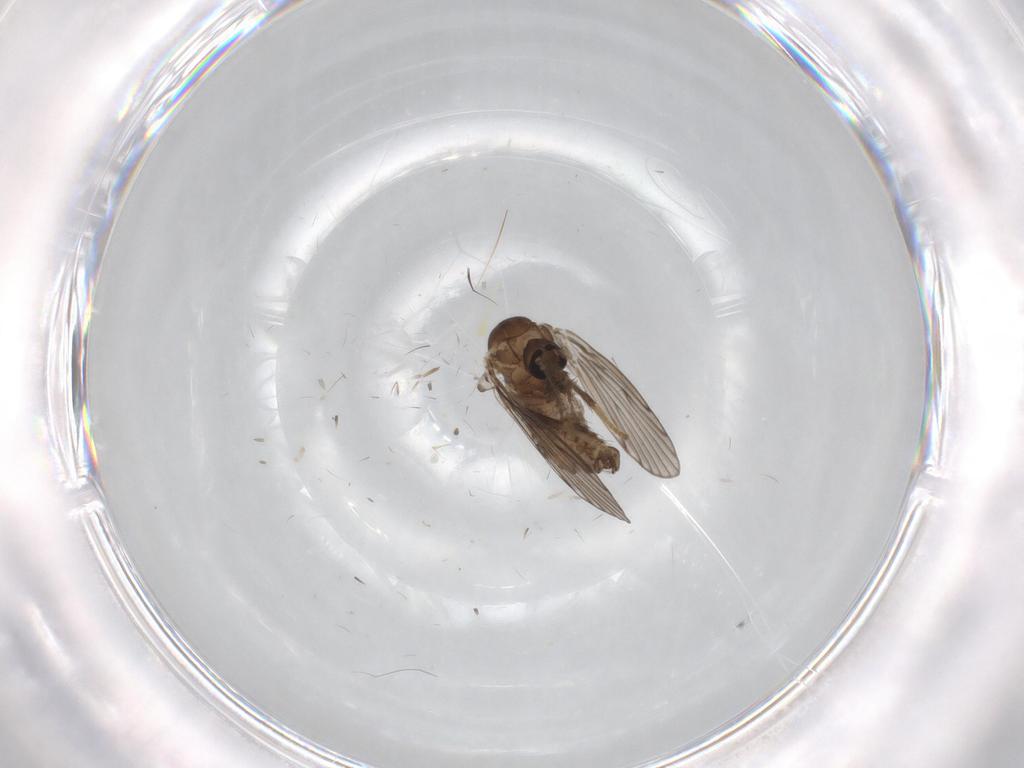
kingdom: Animalia
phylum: Arthropoda
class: Insecta
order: Diptera
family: Psychodidae
